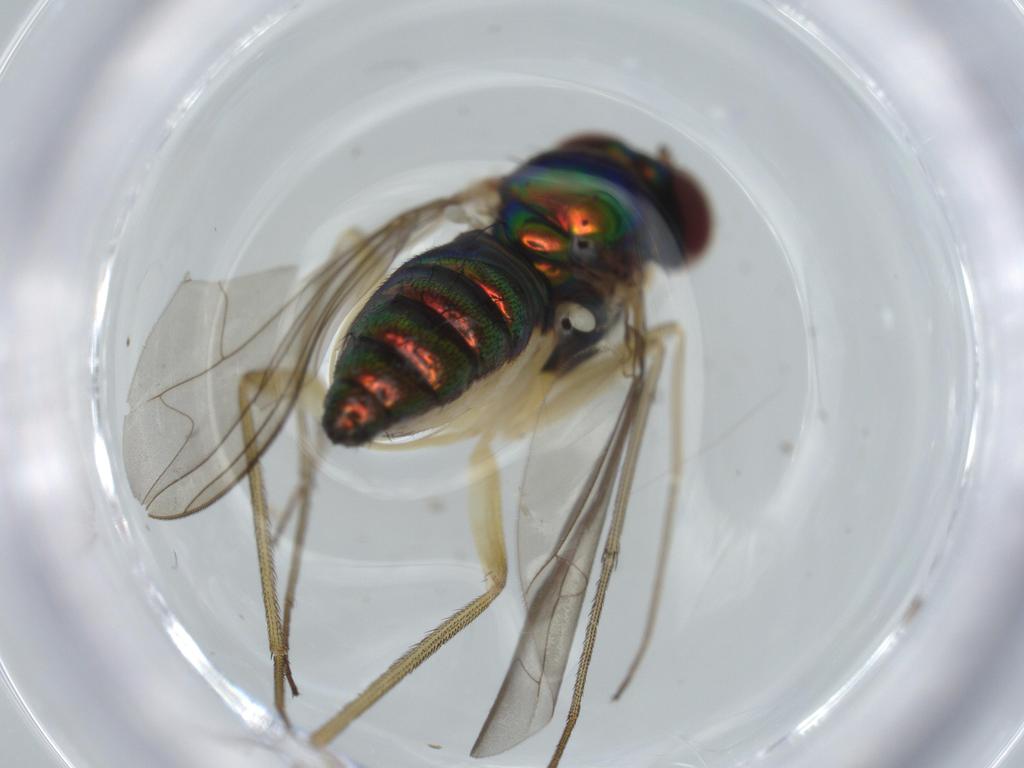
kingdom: Animalia
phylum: Arthropoda
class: Insecta
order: Diptera
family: Dolichopodidae
